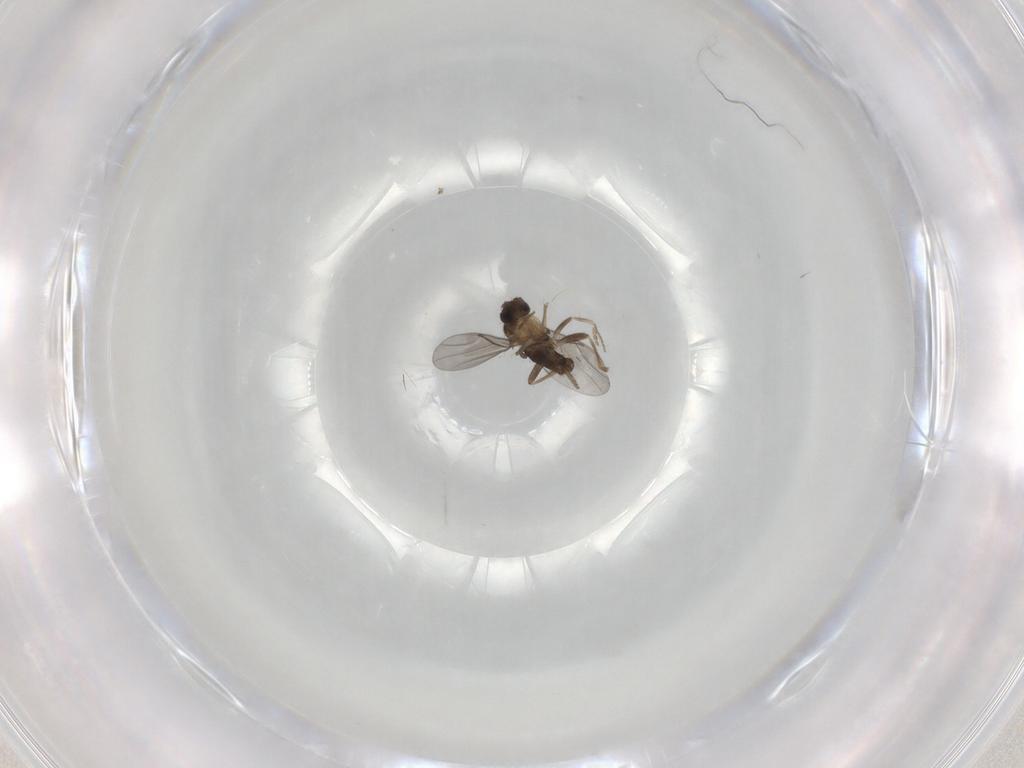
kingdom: Animalia
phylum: Arthropoda
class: Insecta
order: Diptera
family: Dolichopodidae
